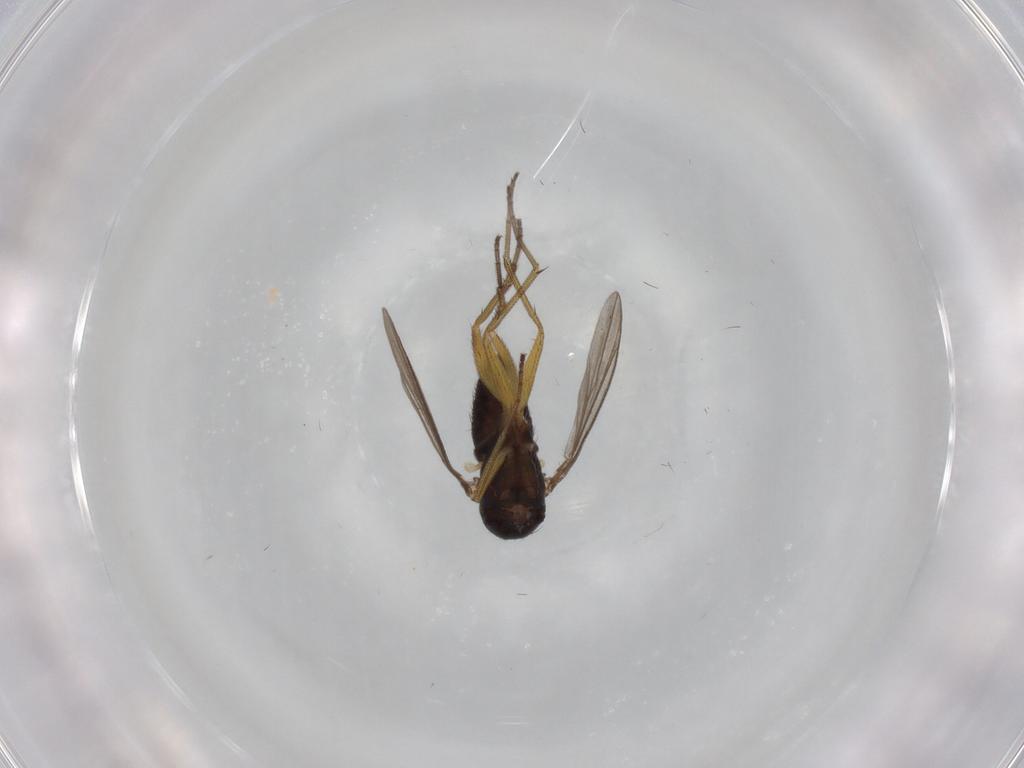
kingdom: Animalia
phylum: Arthropoda
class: Insecta
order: Diptera
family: Dolichopodidae
